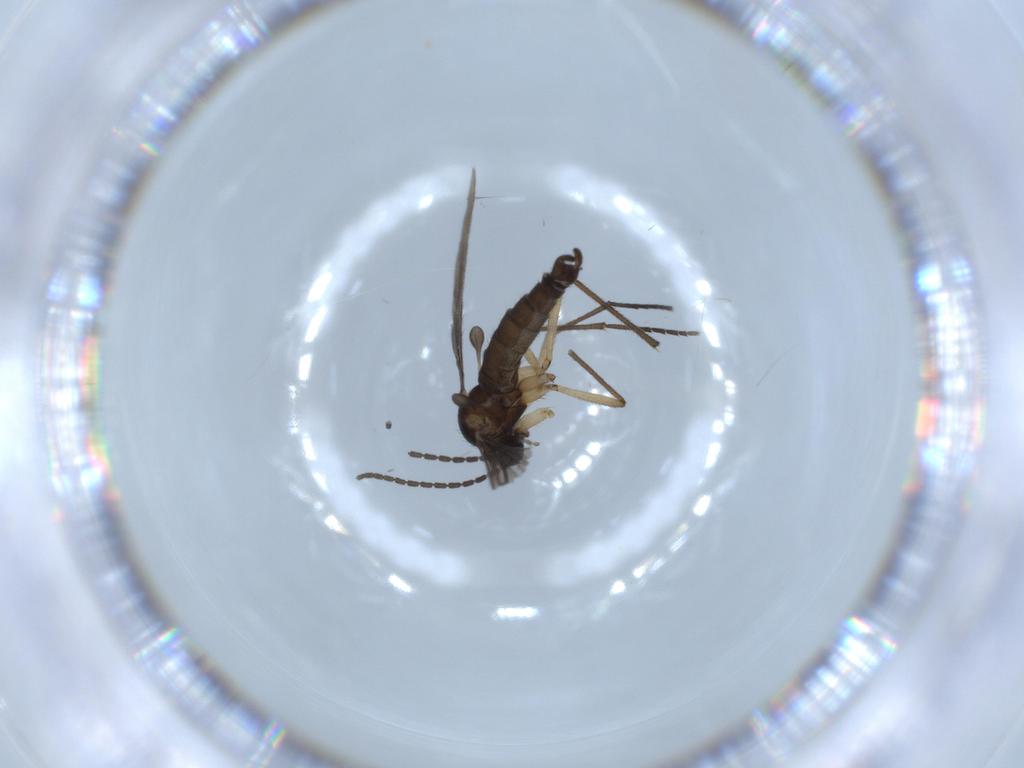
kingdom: Animalia
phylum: Arthropoda
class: Insecta
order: Diptera
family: Sciaridae
